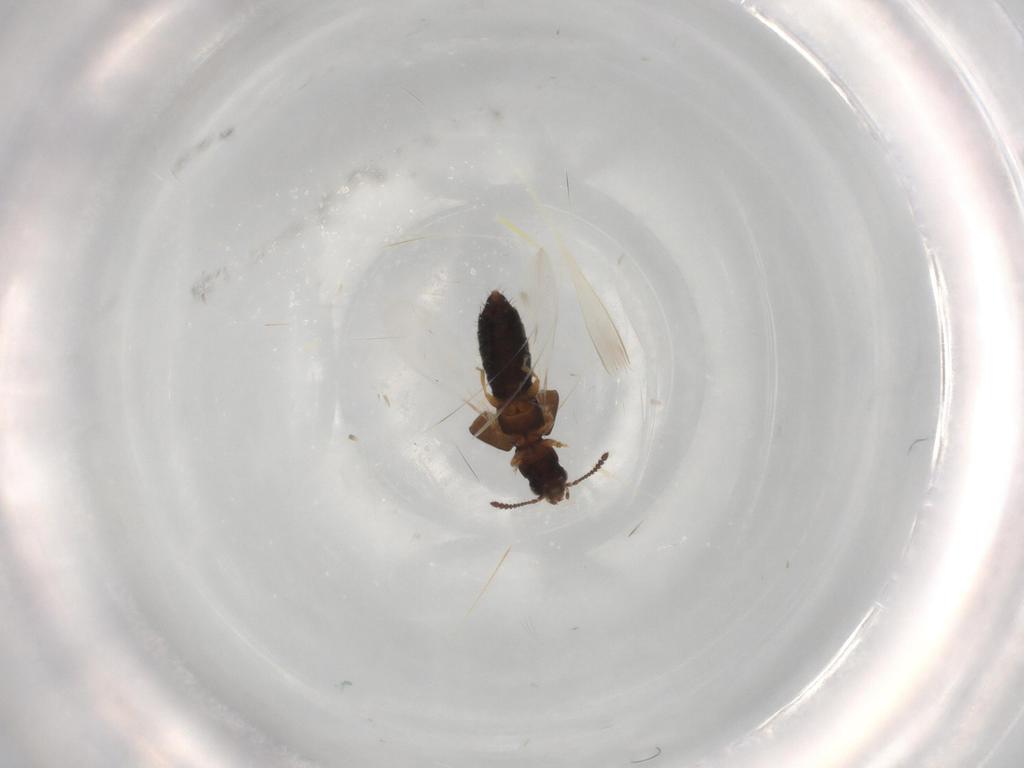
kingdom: Animalia
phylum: Arthropoda
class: Insecta
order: Coleoptera
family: Staphylinidae
